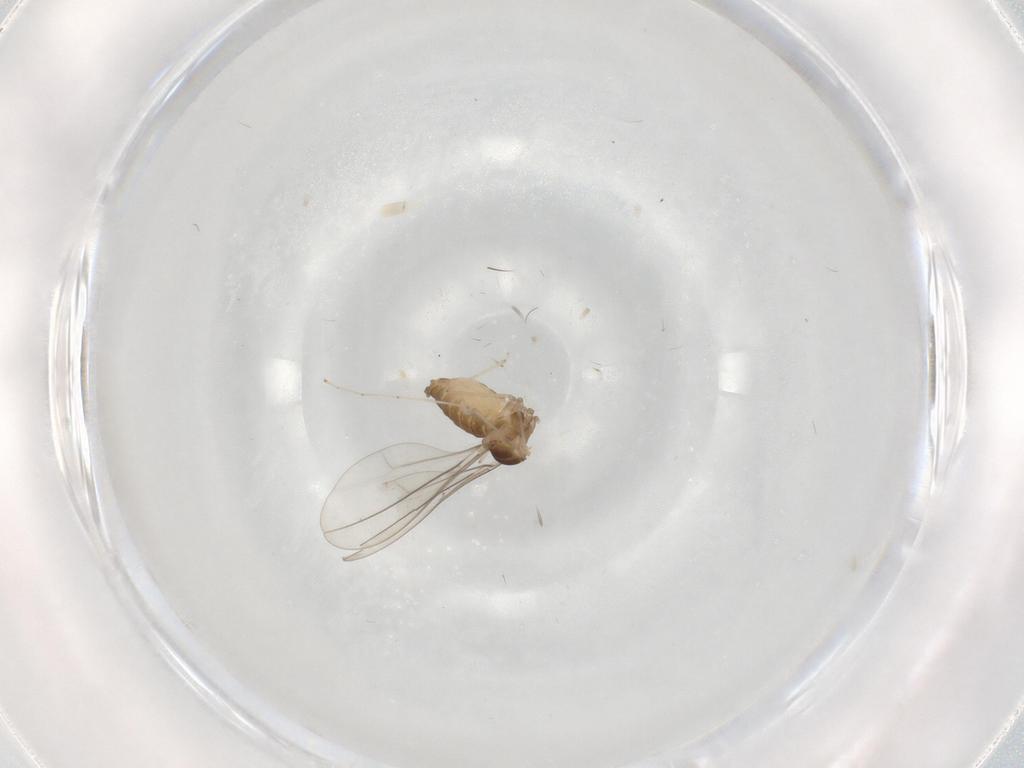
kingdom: Animalia
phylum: Arthropoda
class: Insecta
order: Diptera
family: Cecidomyiidae
